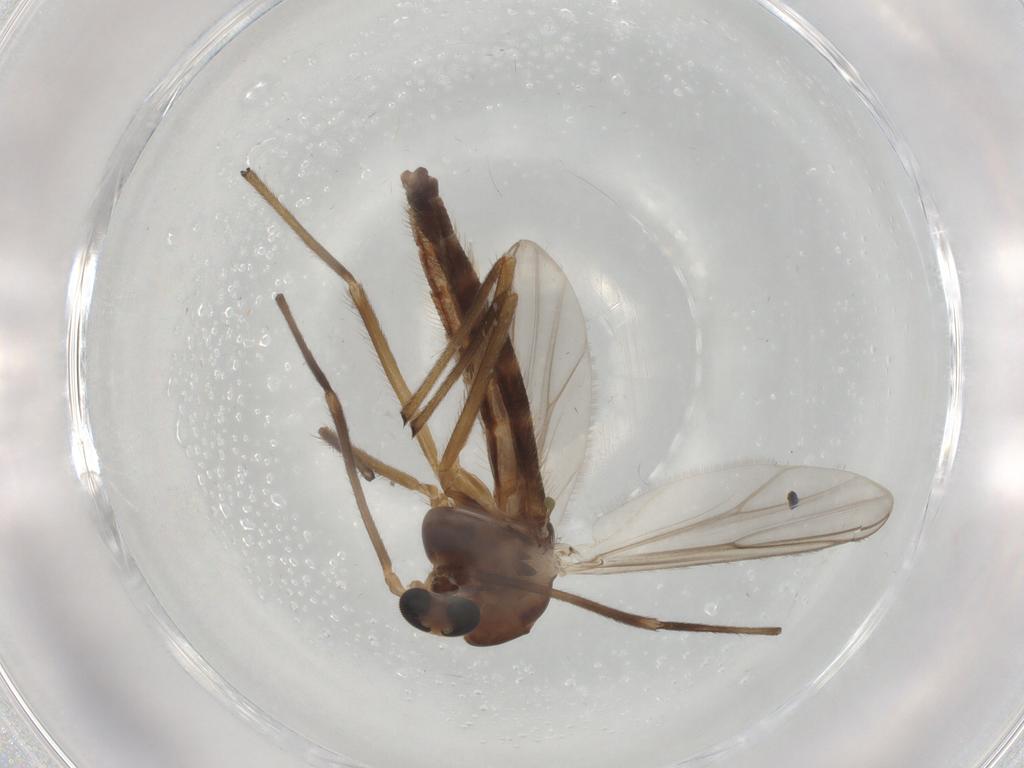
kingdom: Animalia
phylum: Arthropoda
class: Insecta
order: Diptera
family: Chironomidae
